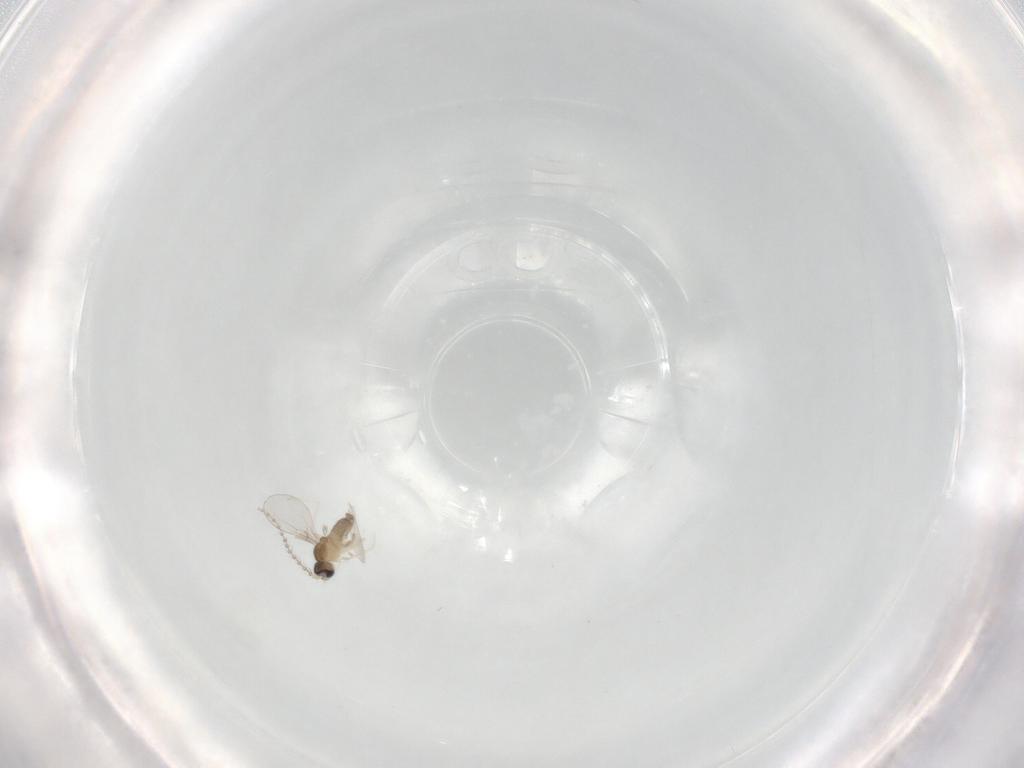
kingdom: Animalia
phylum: Arthropoda
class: Insecta
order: Diptera
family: Cecidomyiidae
